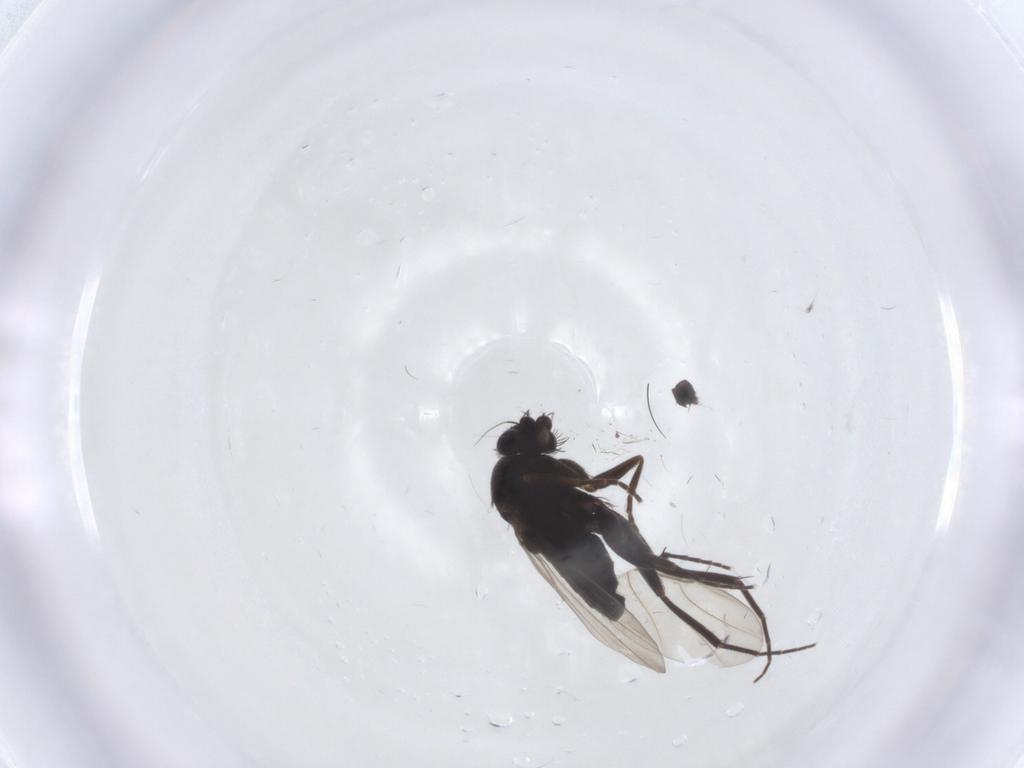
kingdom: Animalia
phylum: Arthropoda
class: Insecta
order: Diptera
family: Phoridae
